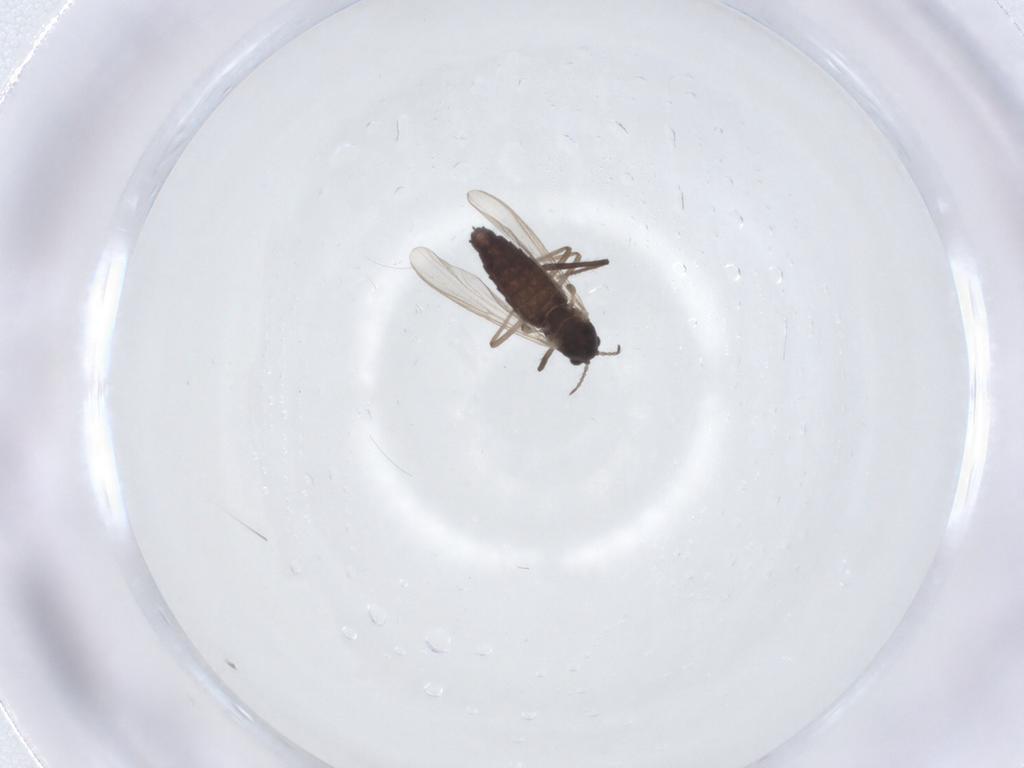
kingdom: Animalia
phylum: Arthropoda
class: Insecta
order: Diptera
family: Chironomidae
